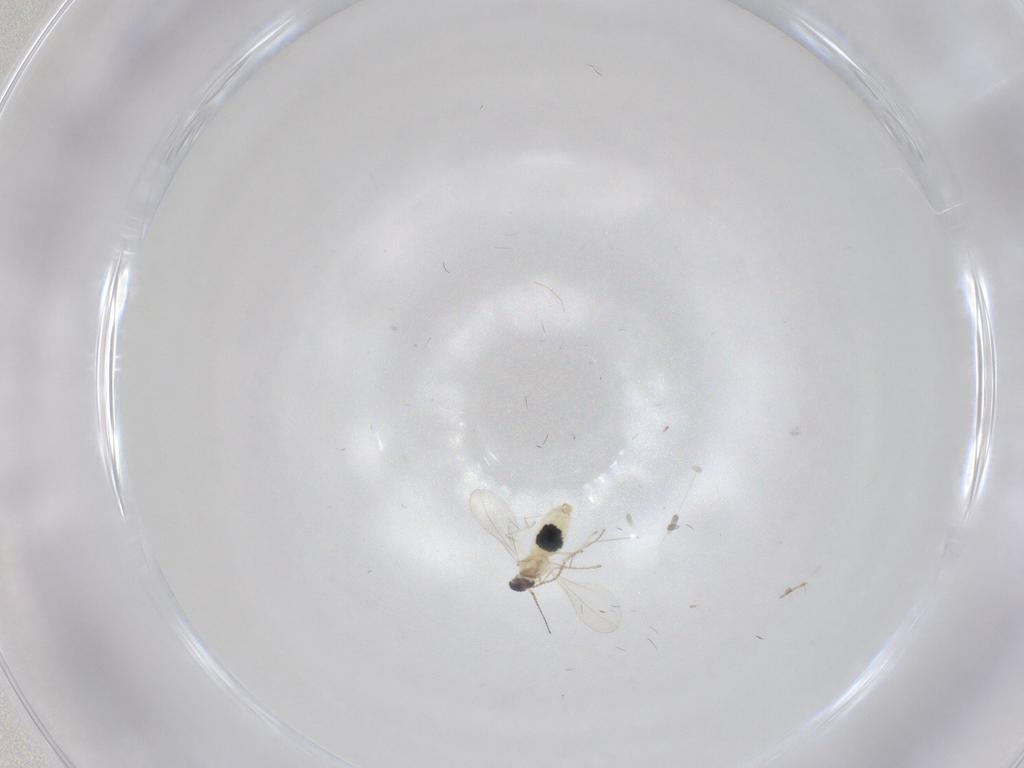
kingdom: Animalia
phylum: Arthropoda
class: Insecta
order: Diptera
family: Cecidomyiidae
